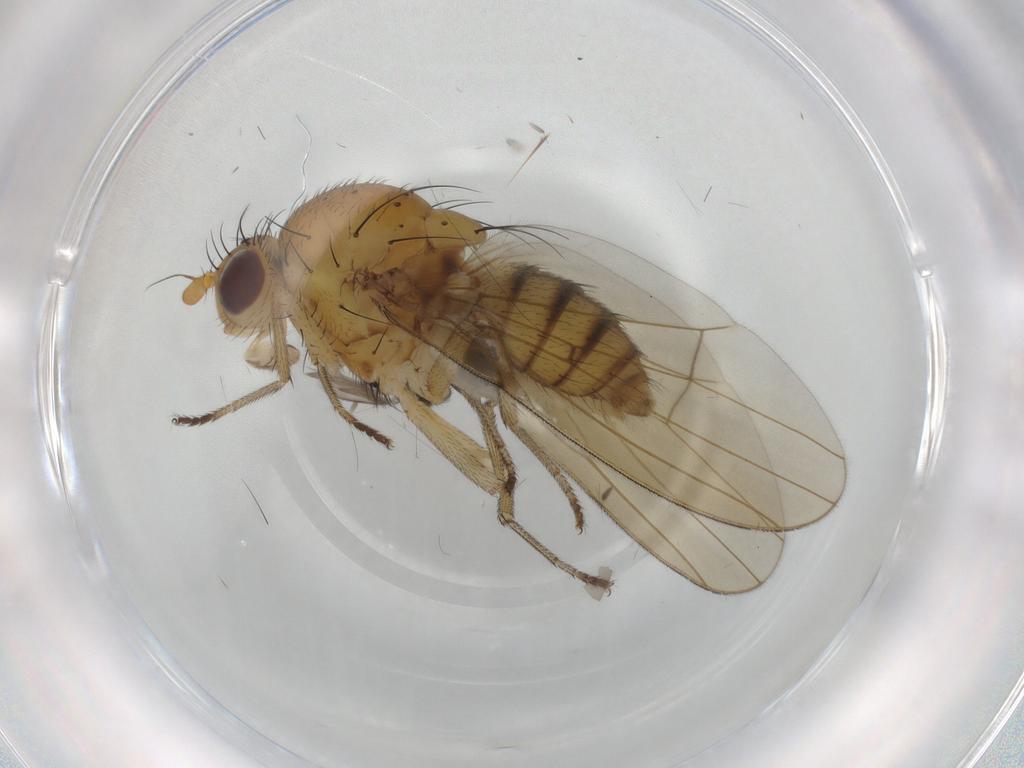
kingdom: Animalia
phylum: Arthropoda
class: Insecta
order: Diptera
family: Lauxaniidae
